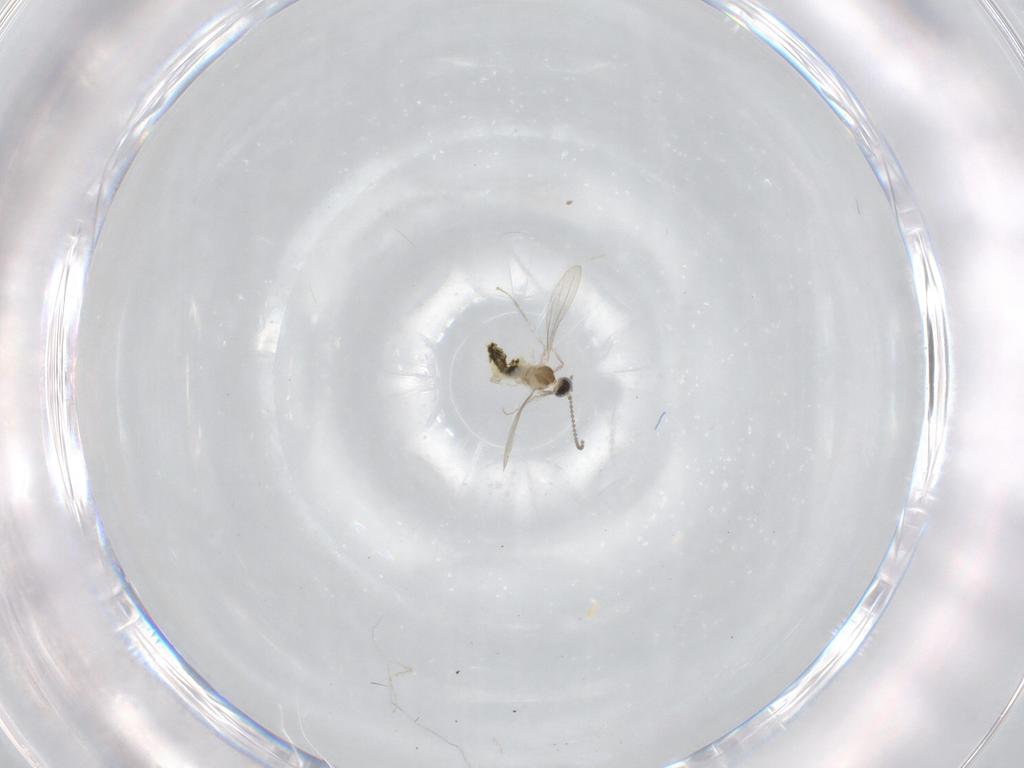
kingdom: Animalia
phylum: Arthropoda
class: Insecta
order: Diptera
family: Cecidomyiidae
